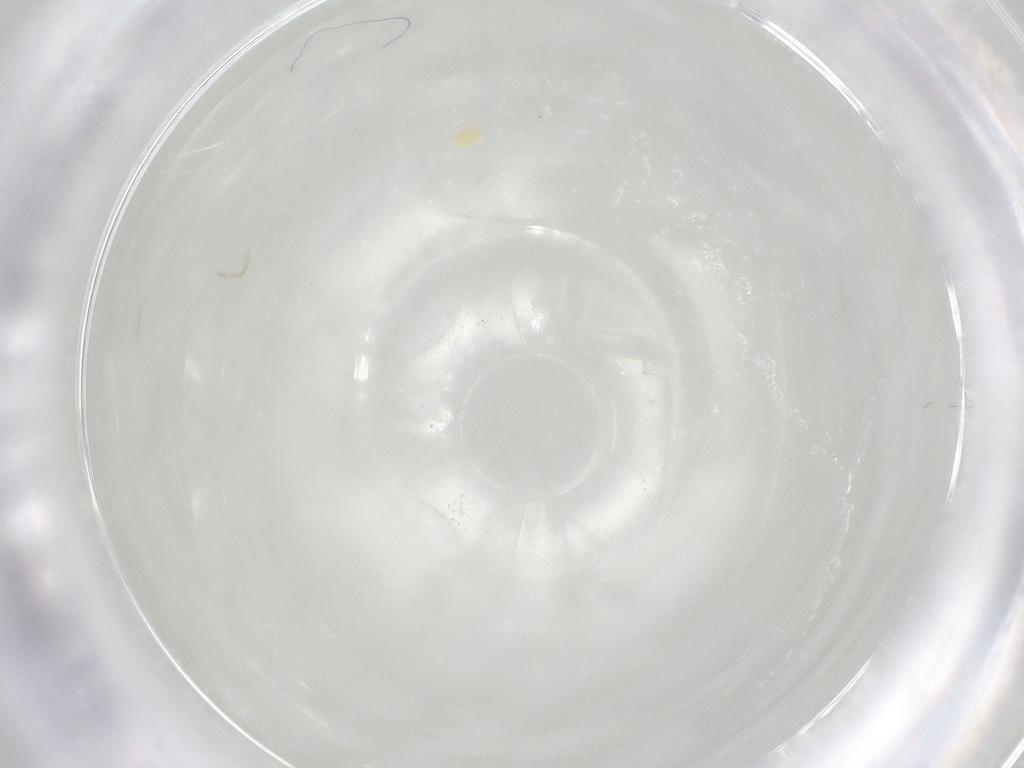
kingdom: Animalia
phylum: Arthropoda
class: Arachnida
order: Trombidiformes
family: Tetranychidae
